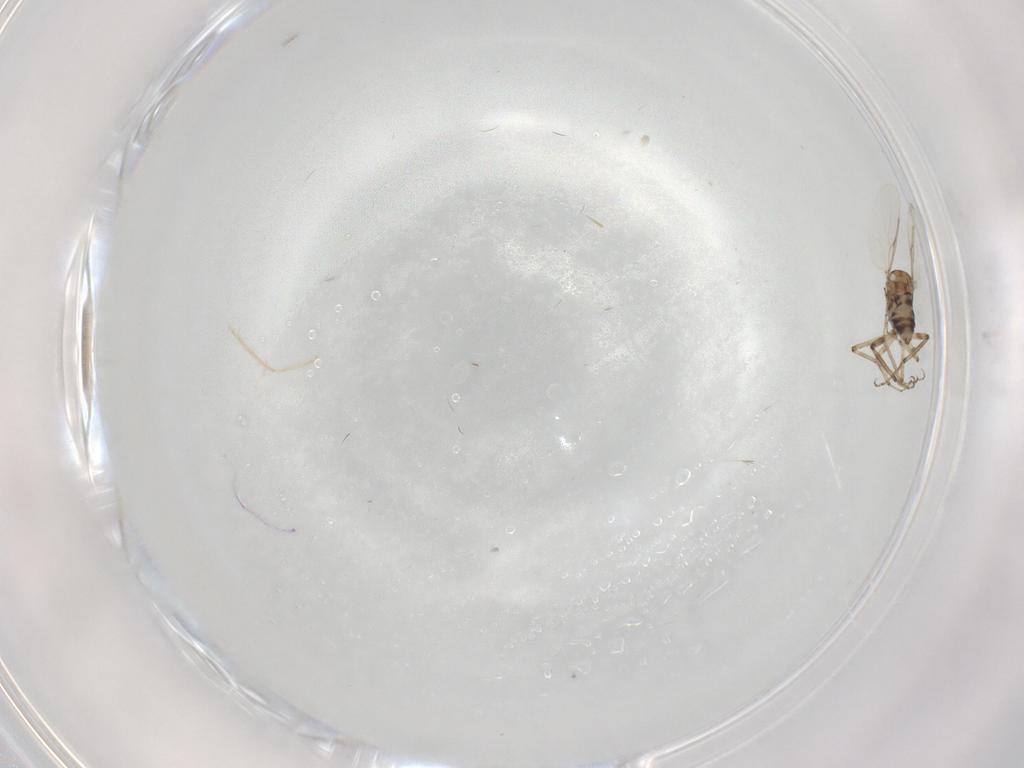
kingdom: Animalia
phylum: Arthropoda
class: Insecta
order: Diptera
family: Ceratopogonidae
